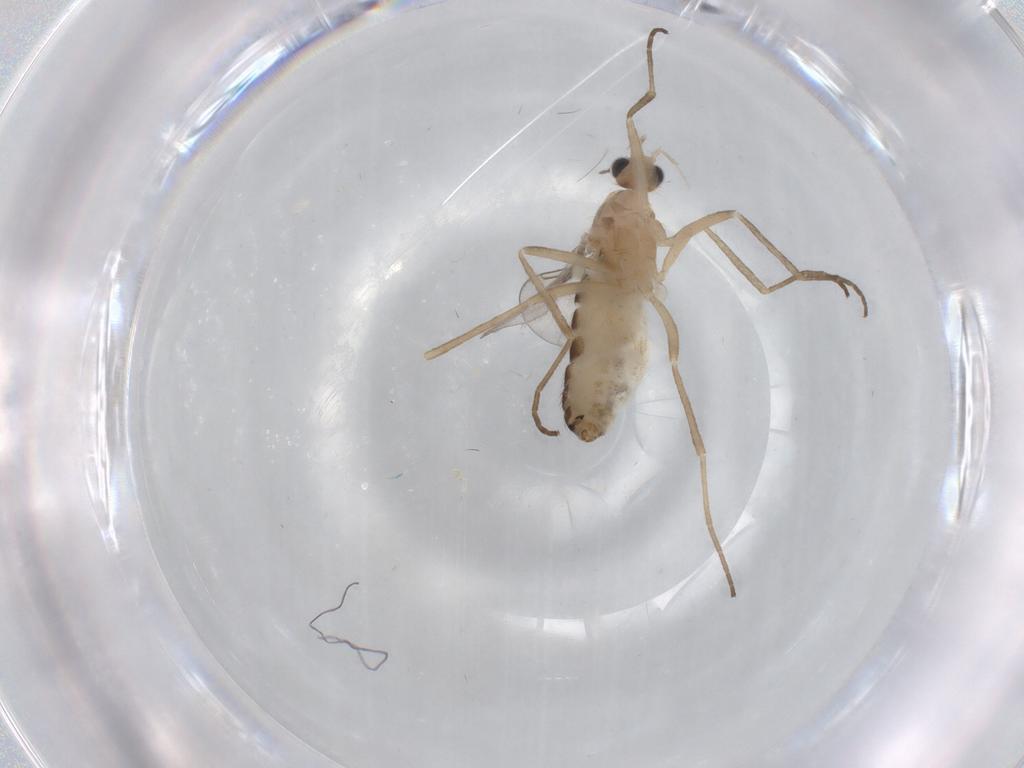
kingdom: Animalia
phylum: Arthropoda
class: Insecta
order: Diptera
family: Cecidomyiidae
